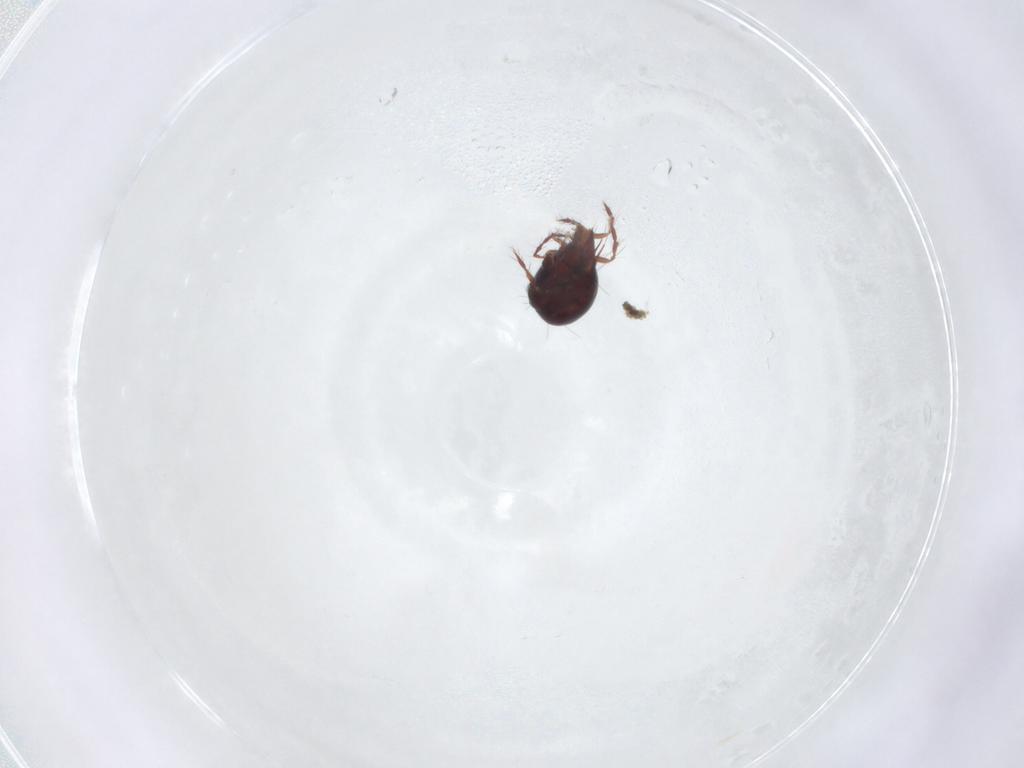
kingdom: Animalia
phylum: Arthropoda
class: Arachnida
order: Sarcoptiformes
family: Ceratoppiidae
